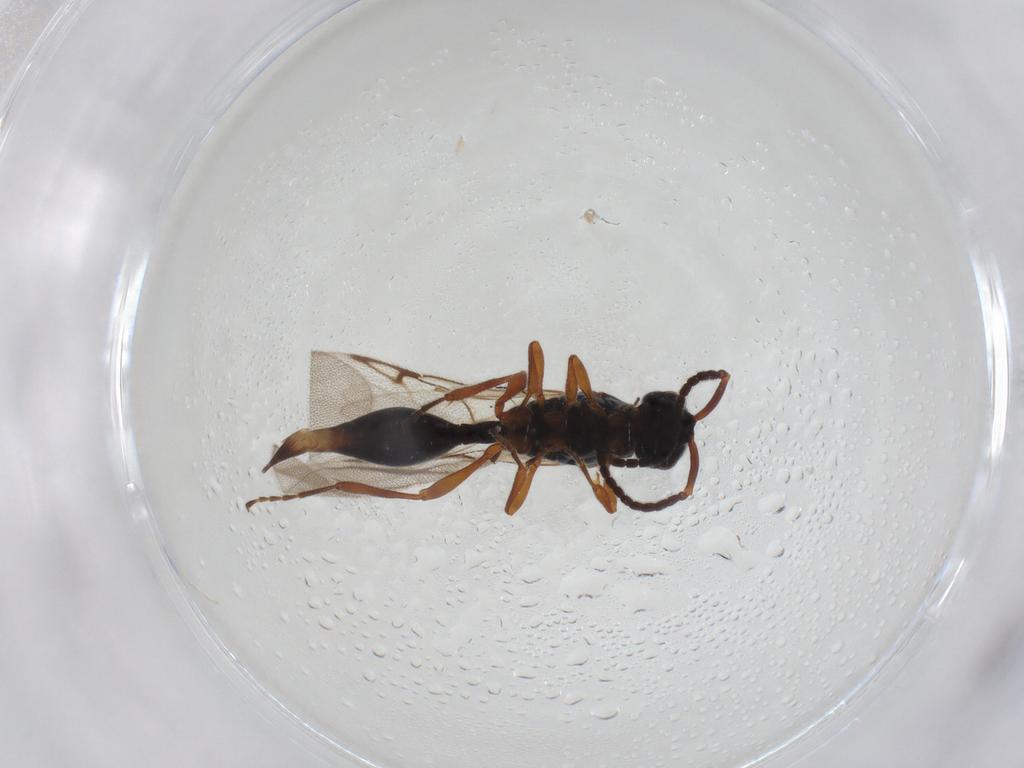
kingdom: Animalia
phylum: Arthropoda
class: Insecta
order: Hymenoptera
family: Diapriidae
